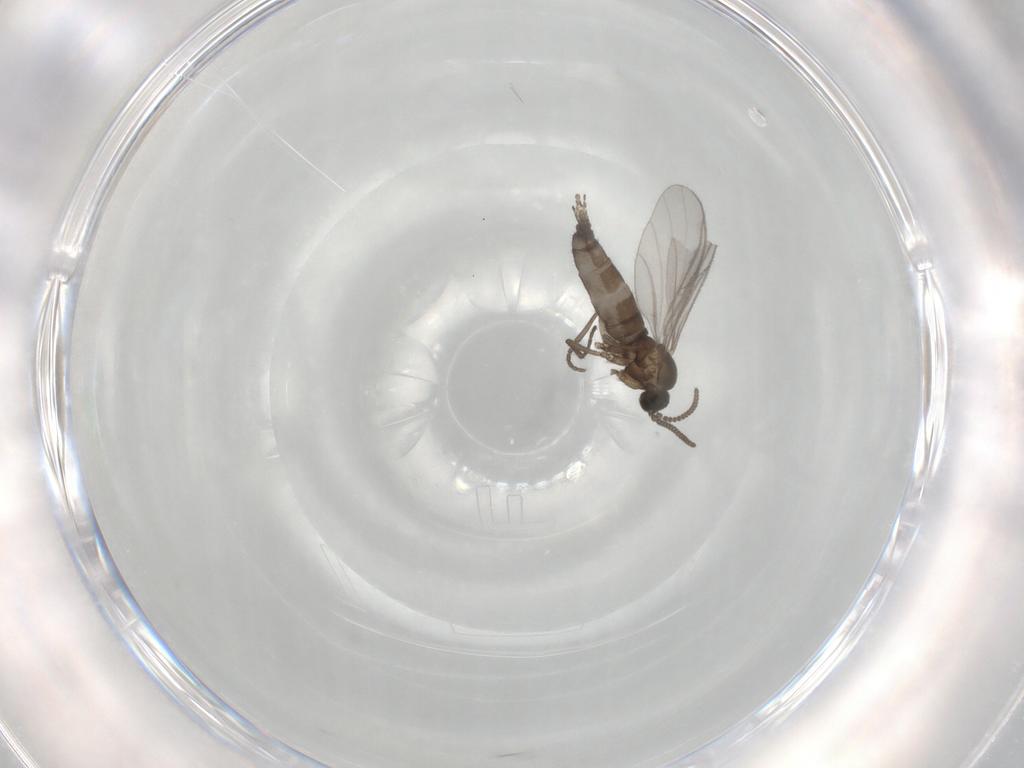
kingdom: Animalia
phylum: Arthropoda
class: Insecta
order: Diptera
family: Sciaridae
